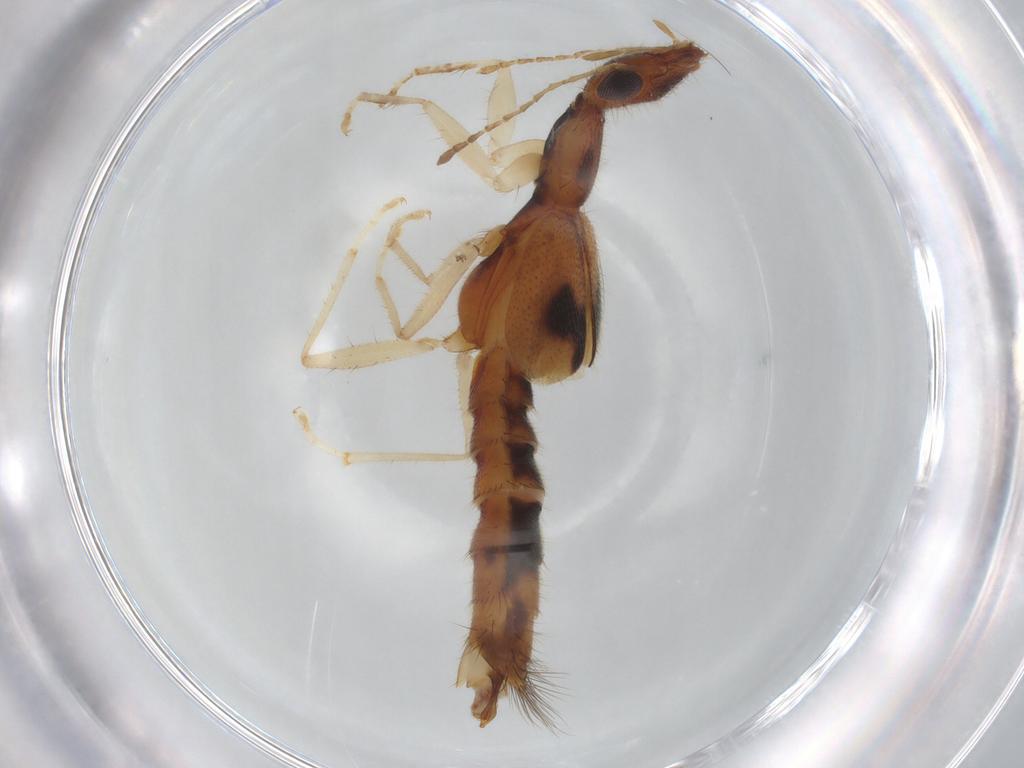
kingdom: Animalia
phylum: Arthropoda
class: Insecta
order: Coleoptera
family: Staphylinidae
